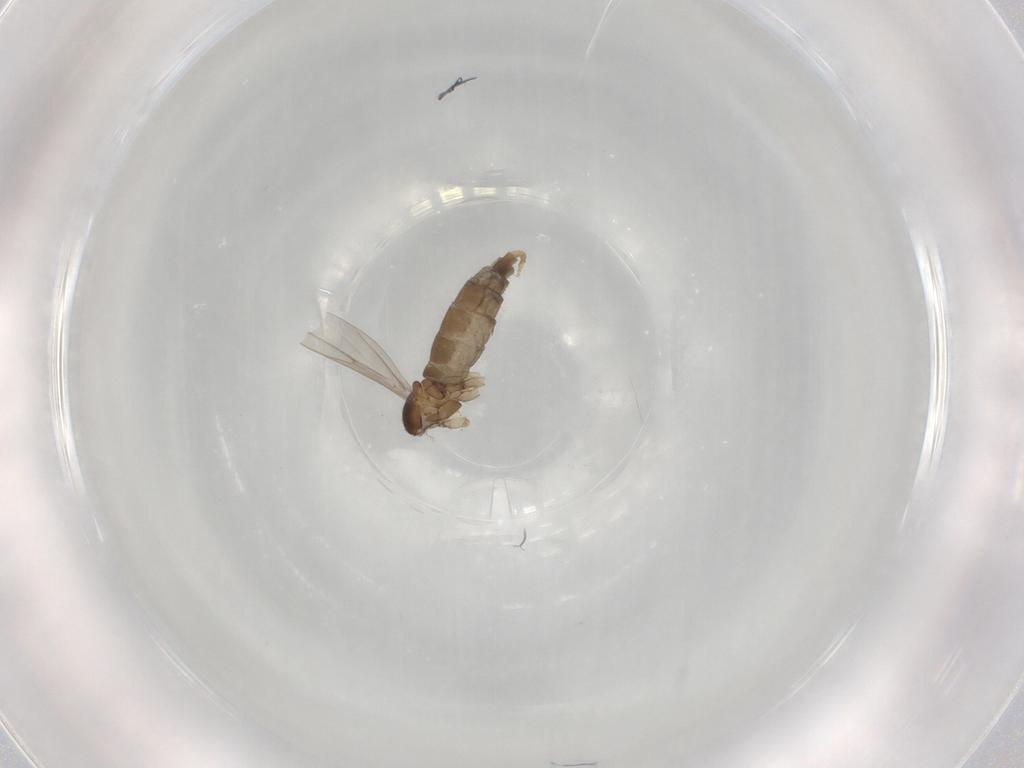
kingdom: Animalia
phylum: Arthropoda
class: Insecta
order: Diptera
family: Cecidomyiidae
